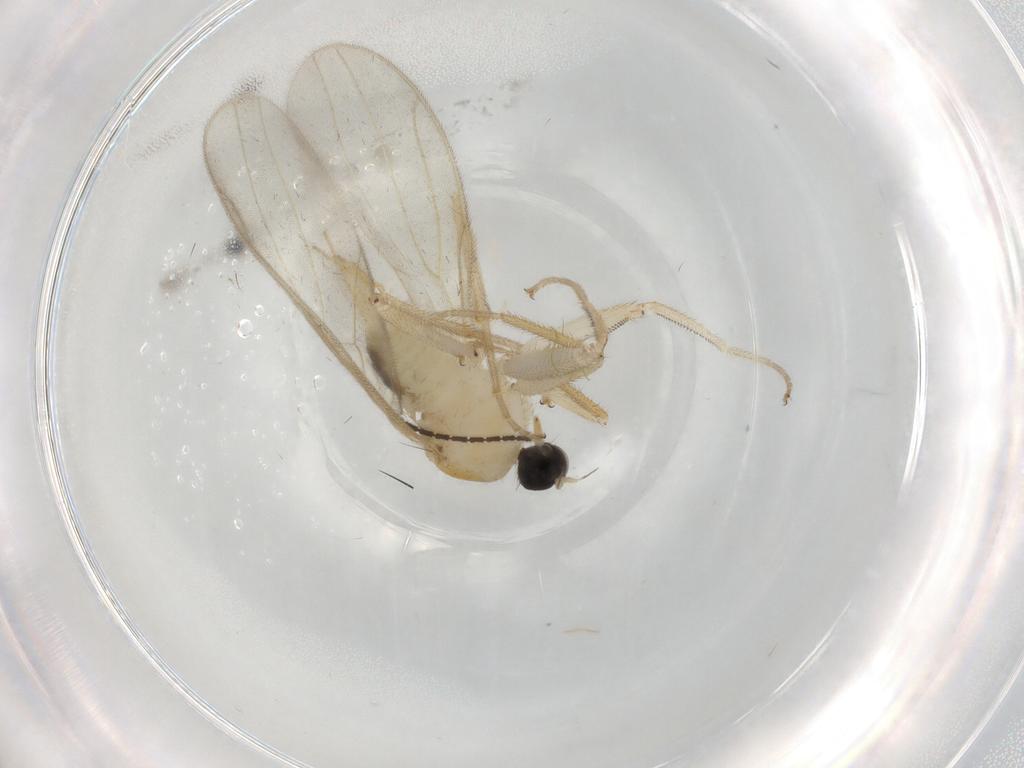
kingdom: Animalia
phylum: Arthropoda
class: Insecta
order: Diptera
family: Hybotidae
